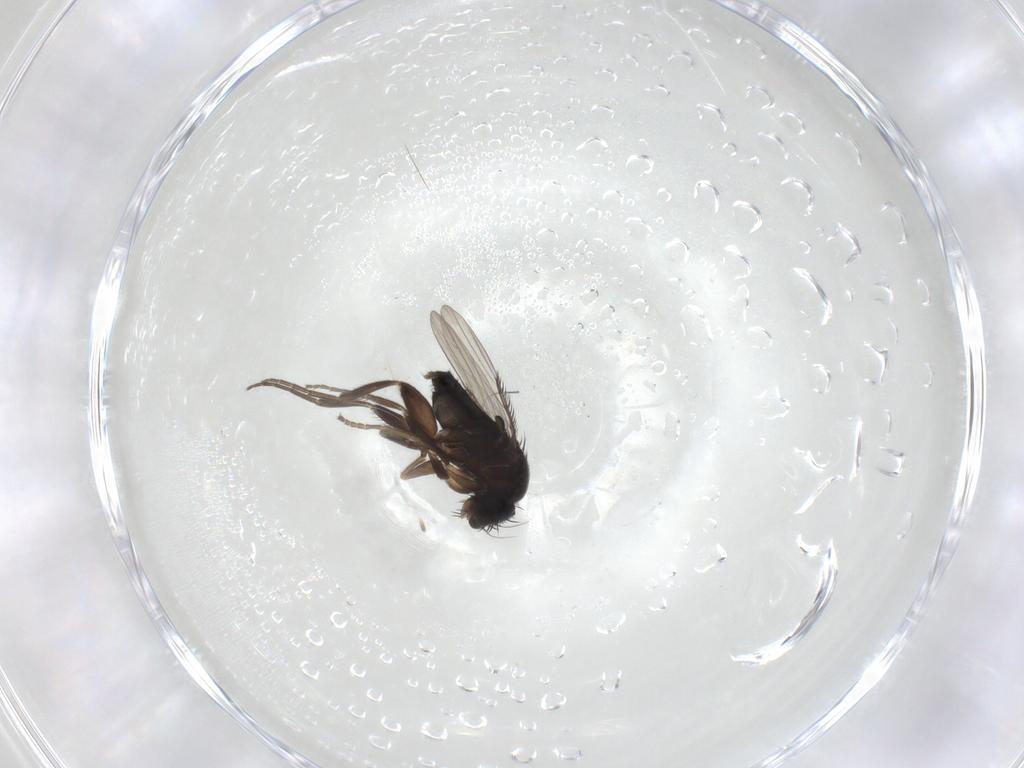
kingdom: Animalia
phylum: Arthropoda
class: Insecta
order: Diptera
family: Phoridae
